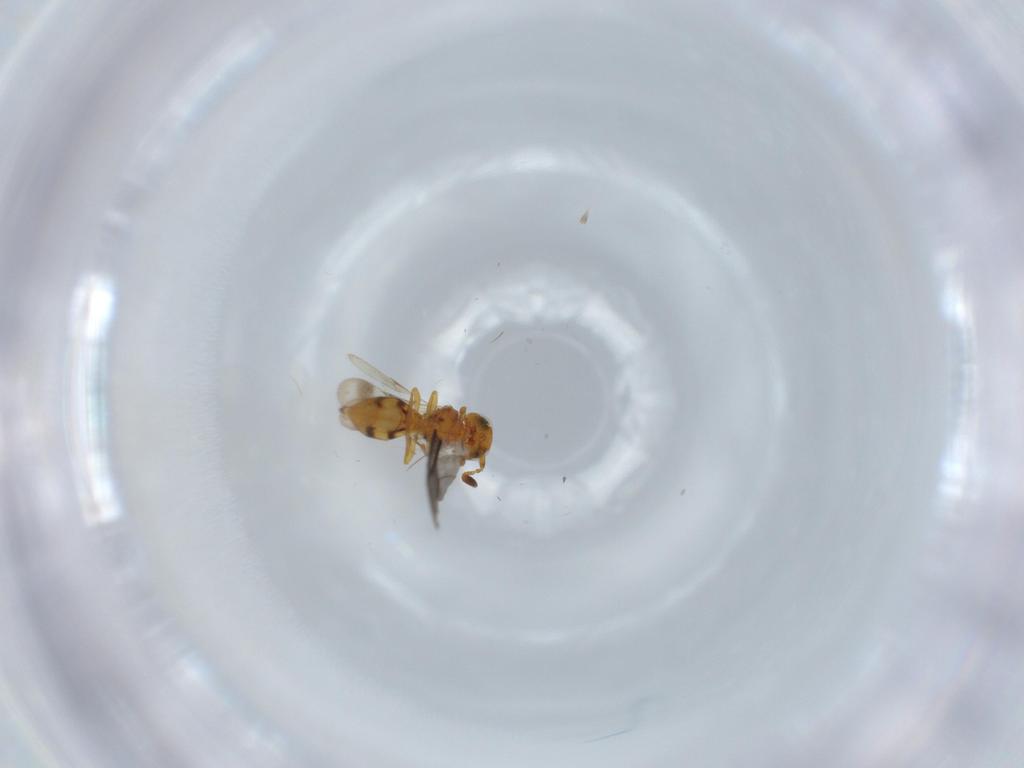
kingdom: Animalia
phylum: Arthropoda
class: Insecta
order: Hymenoptera
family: Scelionidae
